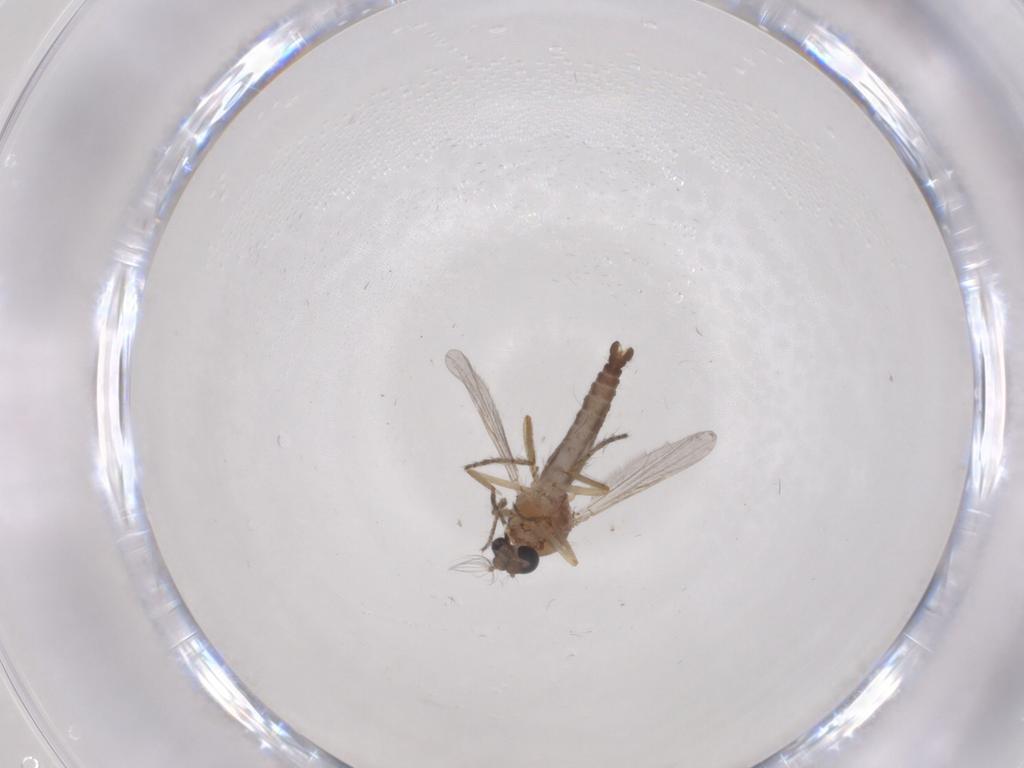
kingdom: Animalia
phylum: Arthropoda
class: Insecta
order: Diptera
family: Ceratopogonidae
